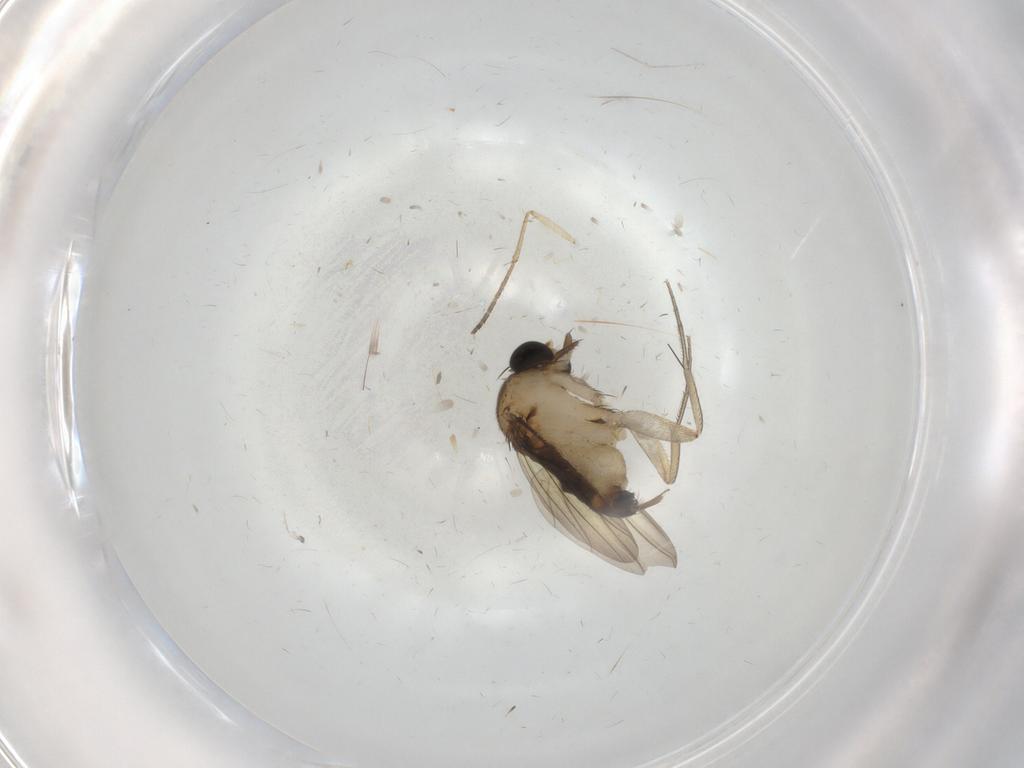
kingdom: Animalia
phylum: Arthropoda
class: Insecta
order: Diptera
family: Phoridae
